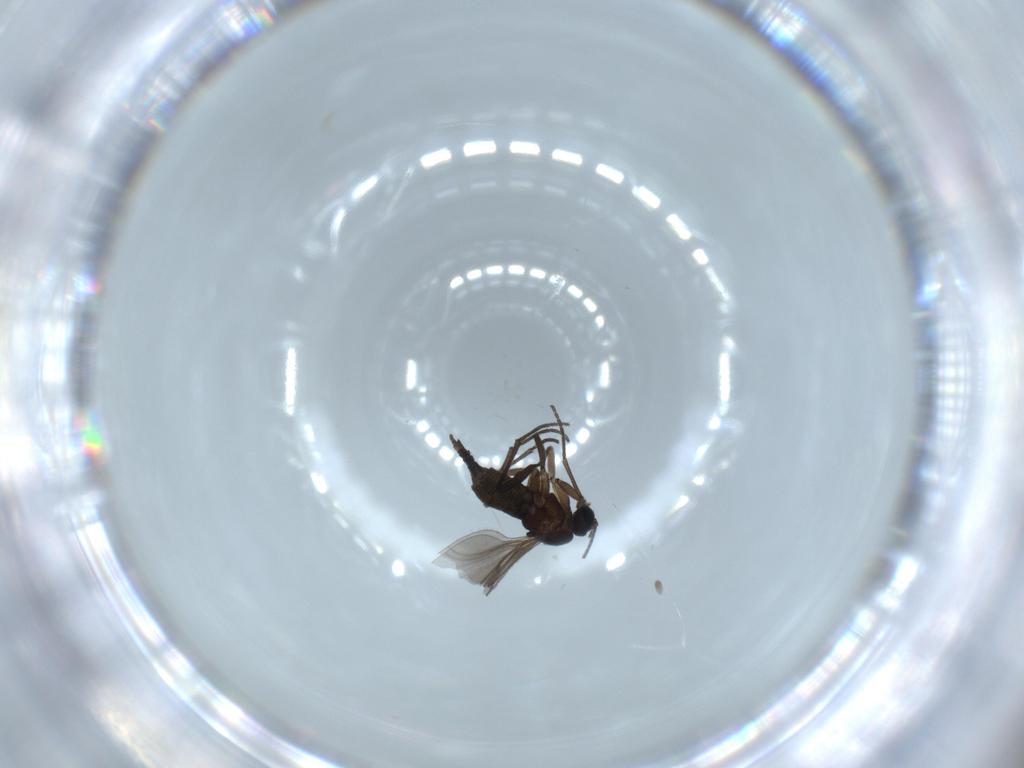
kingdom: Animalia
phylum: Arthropoda
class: Insecta
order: Diptera
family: Sciaridae
